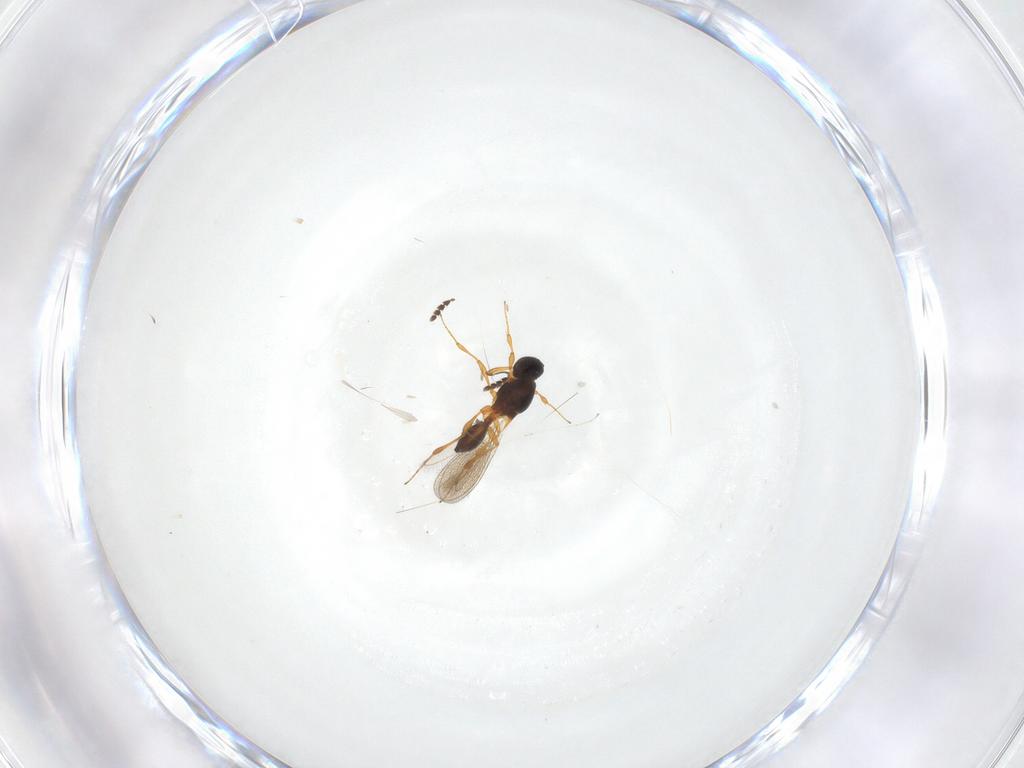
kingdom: Animalia
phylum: Arthropoda
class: Insecta
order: Hymenoptera
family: Platygastridae
